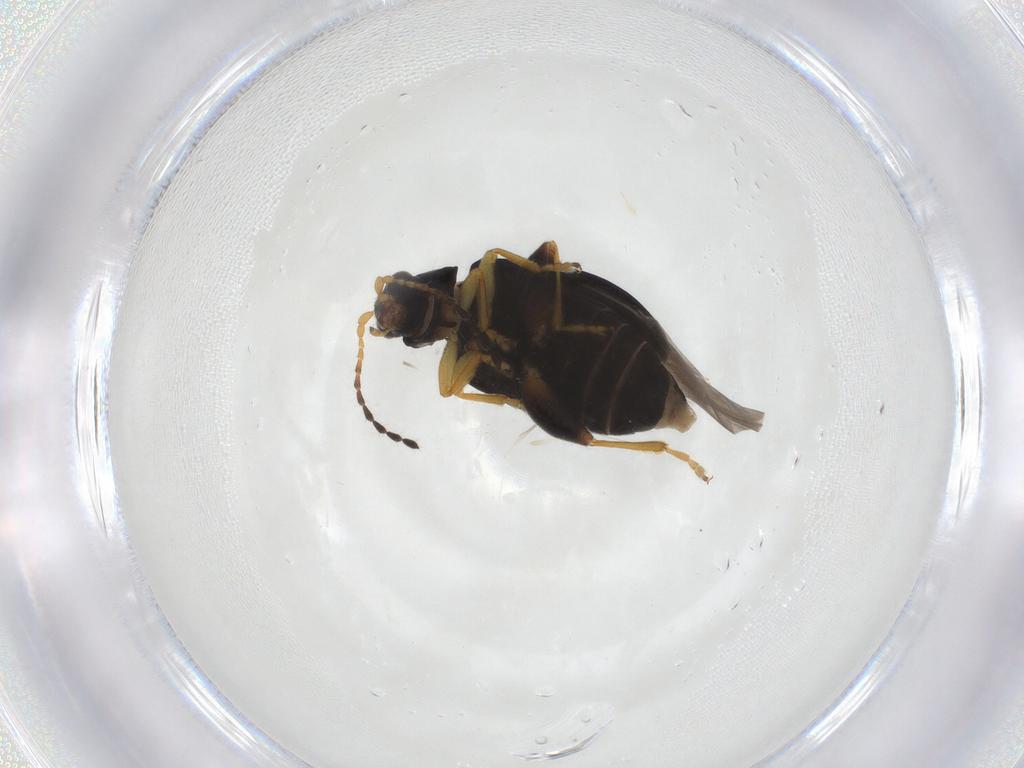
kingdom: Animalia
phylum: Arthropoda
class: Insecta
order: Coleoptera
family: Chrysomelidae
